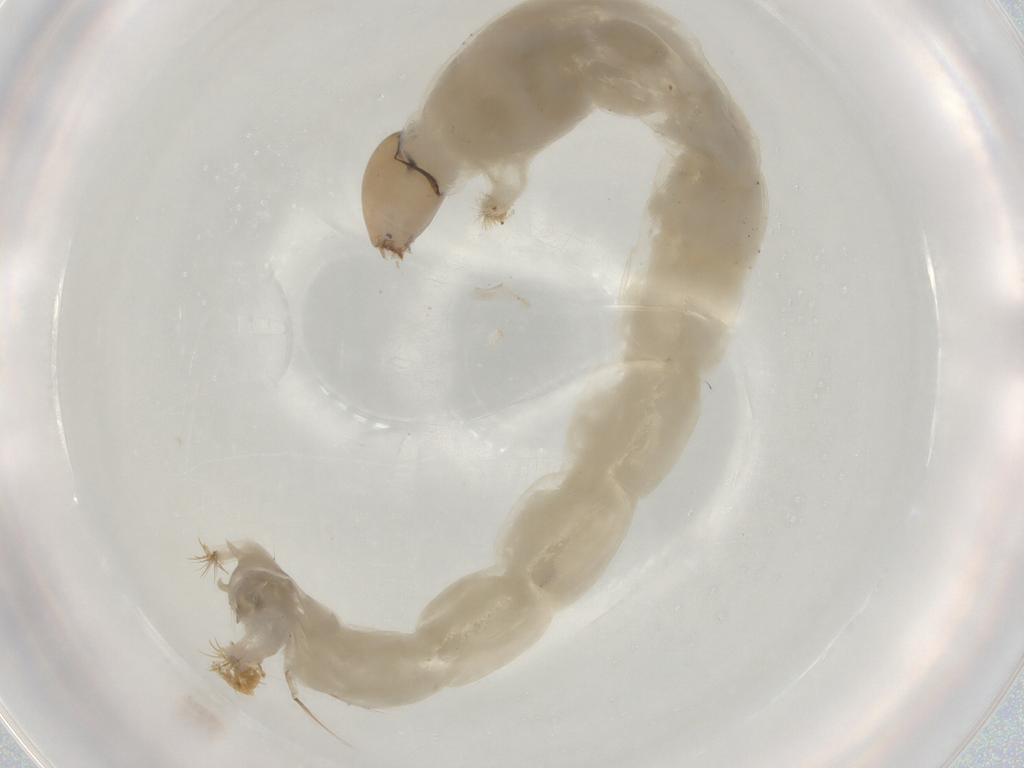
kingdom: Animalia
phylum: Arthropoda
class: Insecta
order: Diptera
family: Chironomidae
